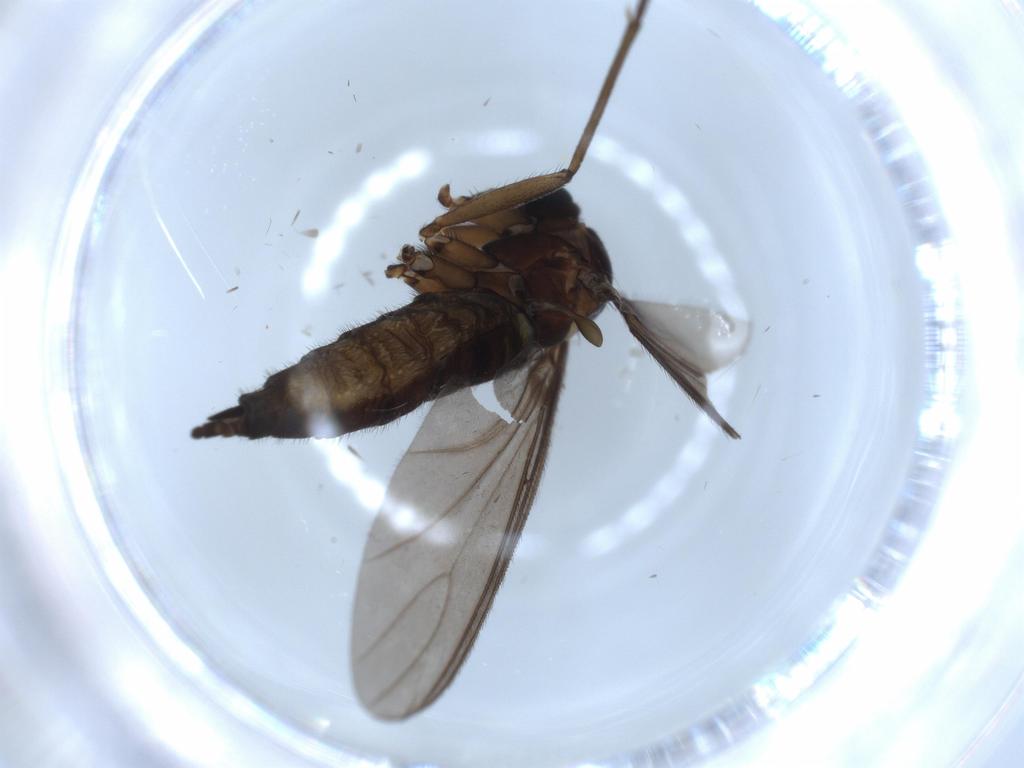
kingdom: Animalia
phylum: Arthropoda
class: Insecta
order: Diptera
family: Sciaridae
